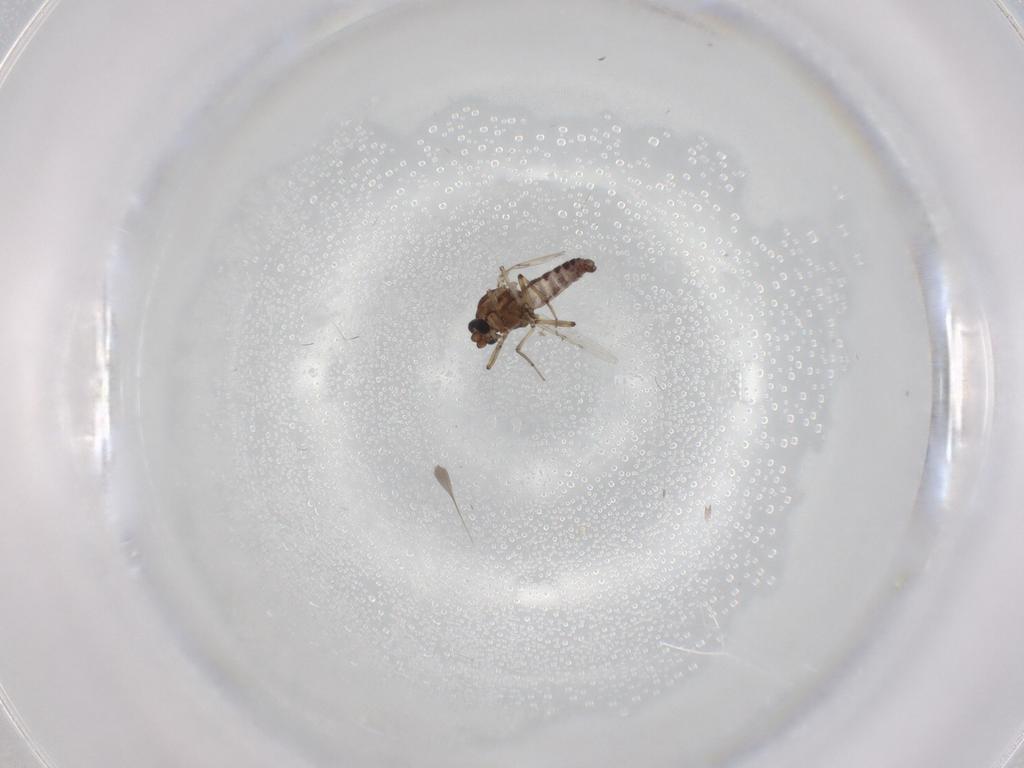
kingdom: Animalia
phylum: Arthropoda
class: Insecta
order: Diptera
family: Ceratopogonidae
